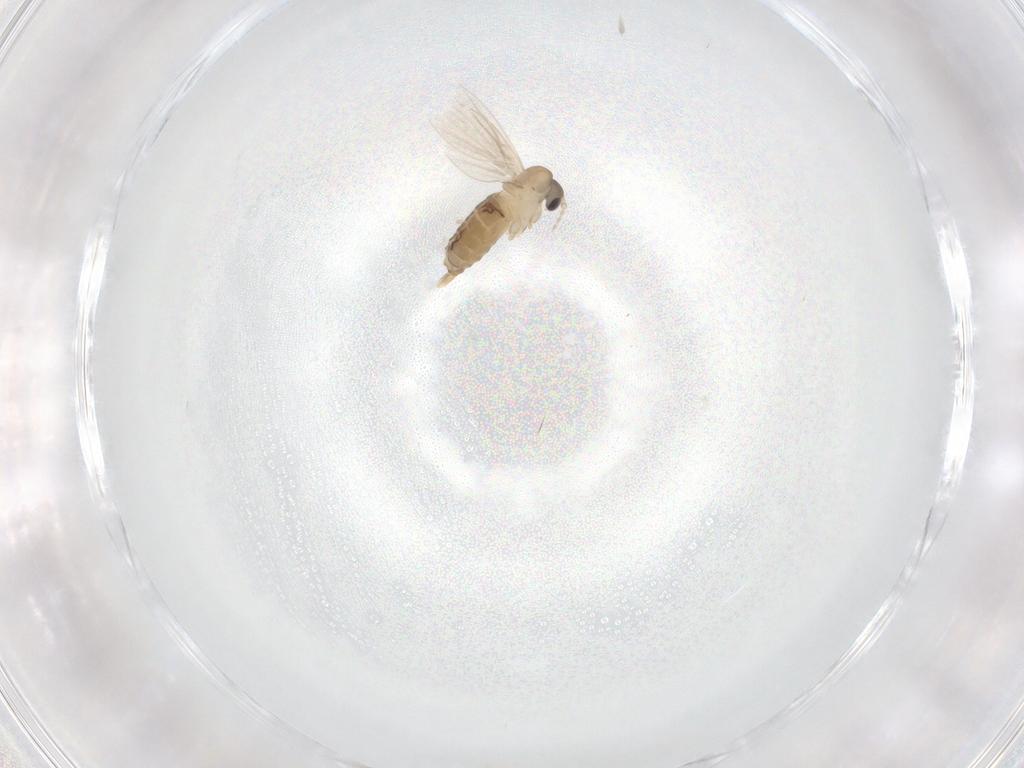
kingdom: Animalia
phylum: Arthropoda
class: Insecta
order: Diptera
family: Psychodidae
